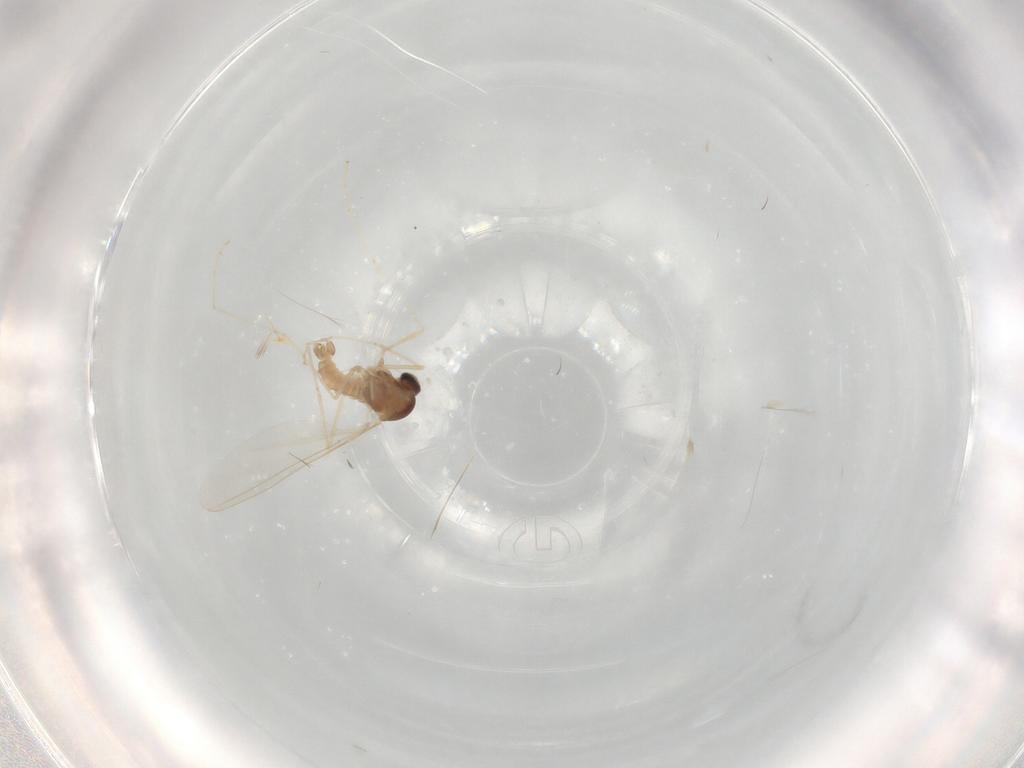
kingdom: Animalia
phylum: Arthropoda
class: Insecta
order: Diptera
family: Cecidomyiidae
